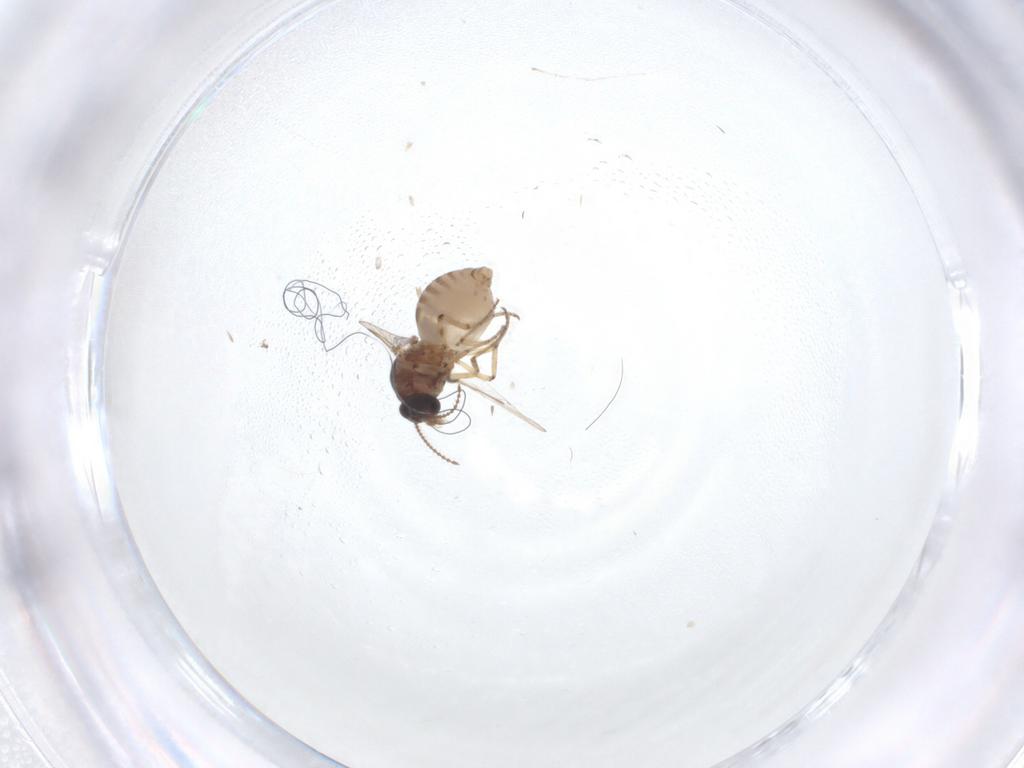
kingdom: Animalia
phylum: Arthropoda
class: Insecta
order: Diptera
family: Ceratopogonidae
